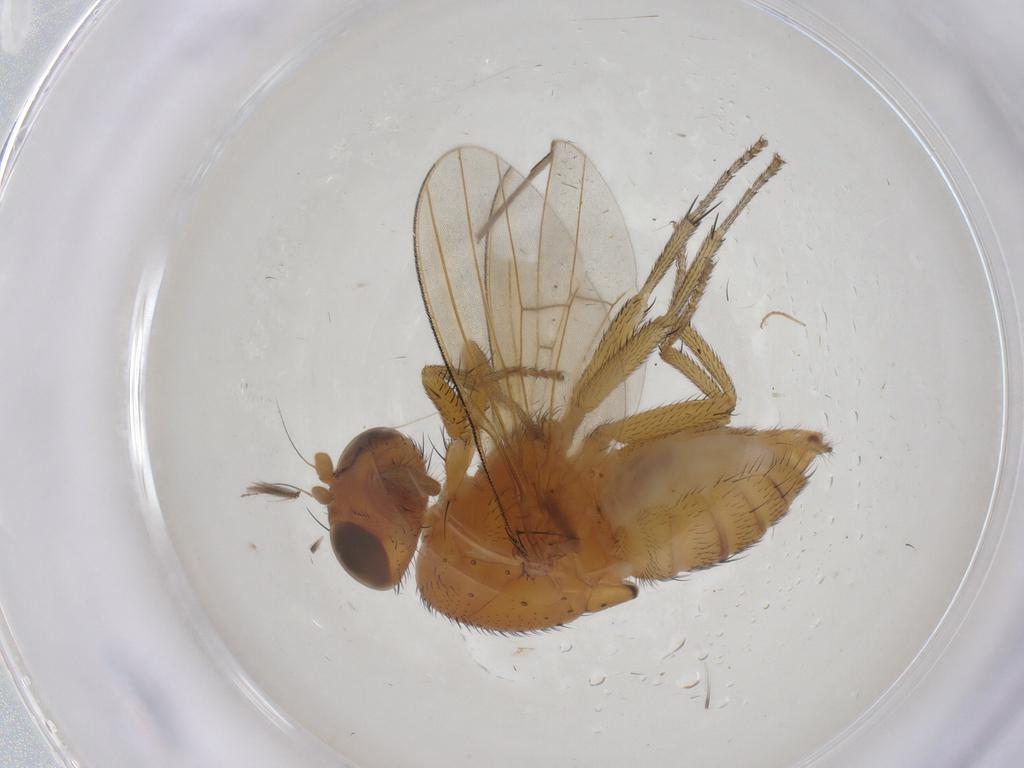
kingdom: Animalia
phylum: Arthropoda
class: Insecta
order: Diptera
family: Ceratopogonidae
